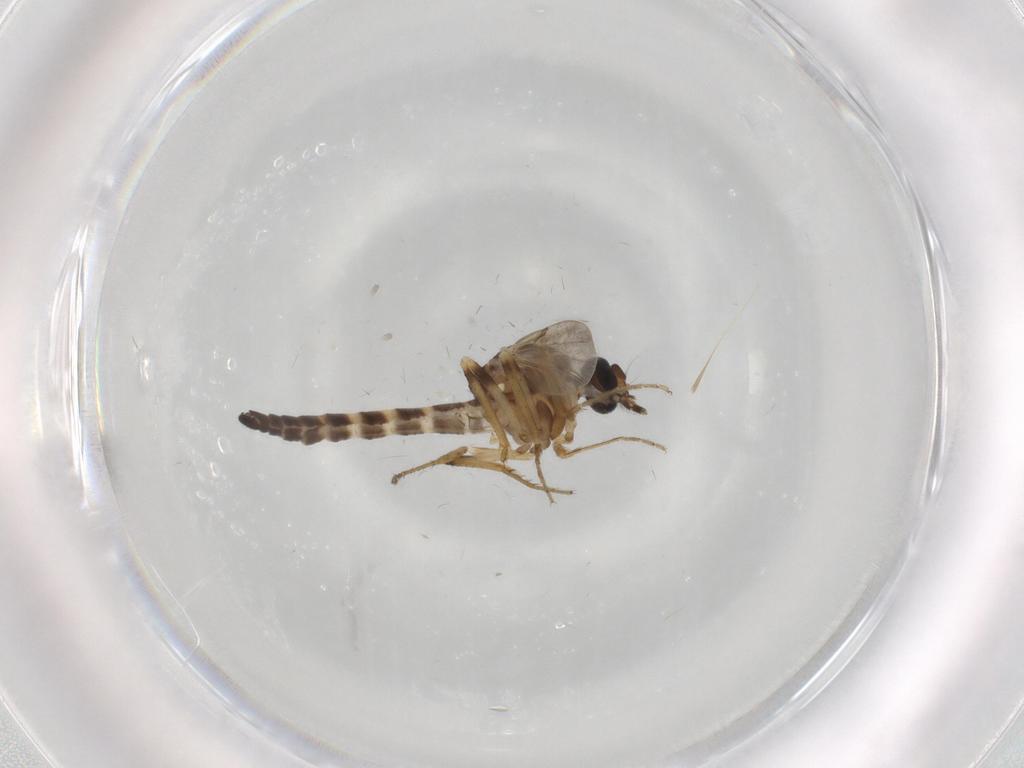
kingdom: Animalia
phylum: Arthropoda
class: Insecta
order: Diptera
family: Ceratopogonidae
